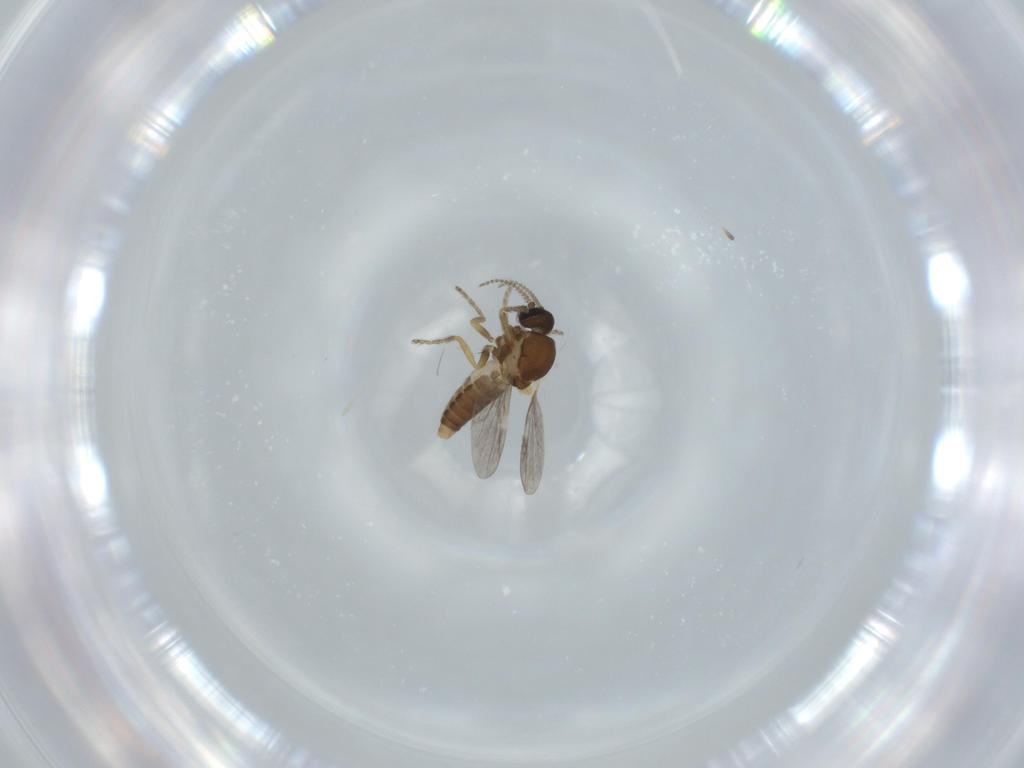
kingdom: Animalia
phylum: Arthropoda
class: Insecta
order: Diptera
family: Ceratopogonidae
